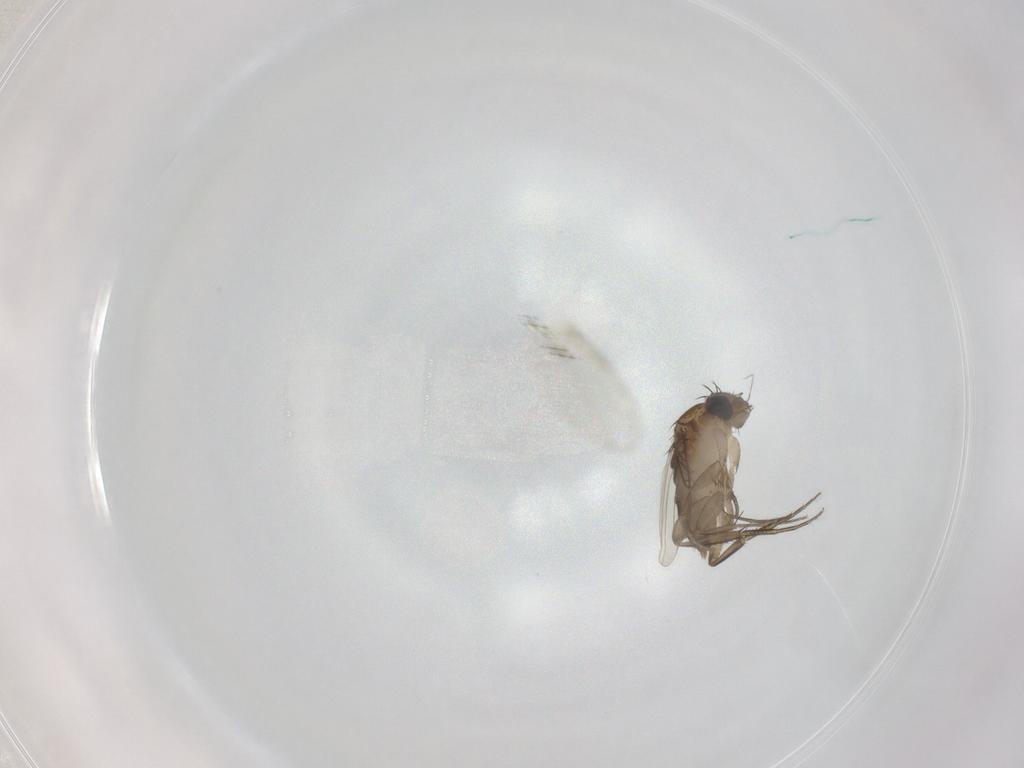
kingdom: Animalia
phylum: Arthropoda
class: Insecta
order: Diptera
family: Phoridae
